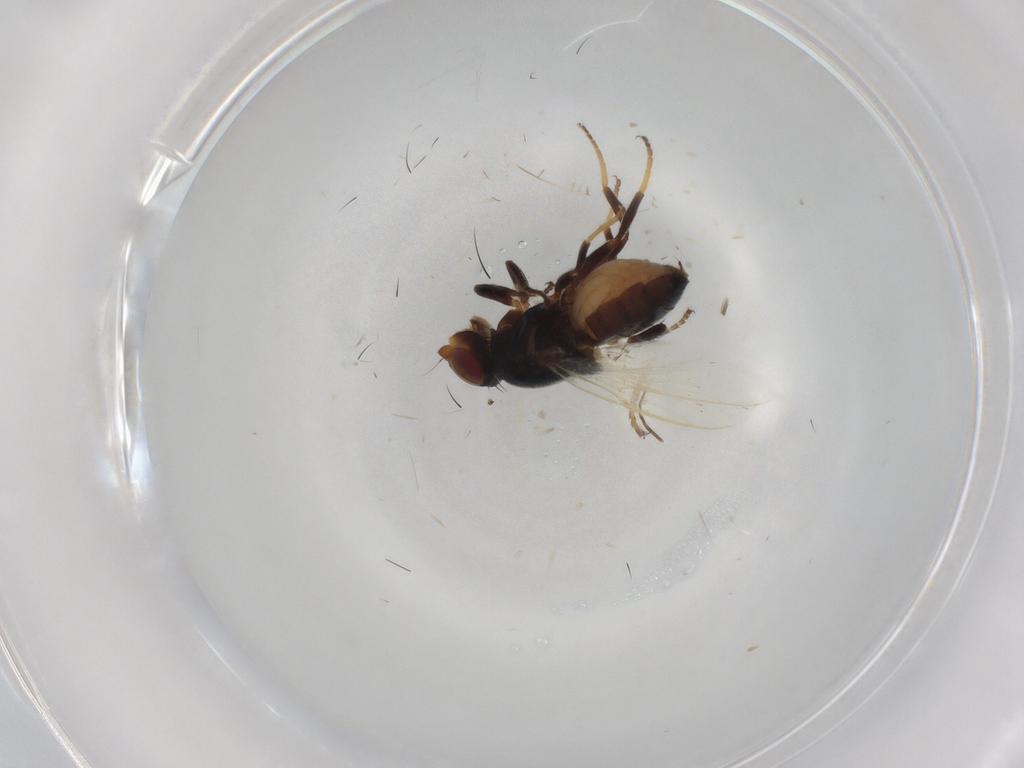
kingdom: Animalia
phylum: Arthropoda
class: Insecta
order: Diptera
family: Chloropidae
